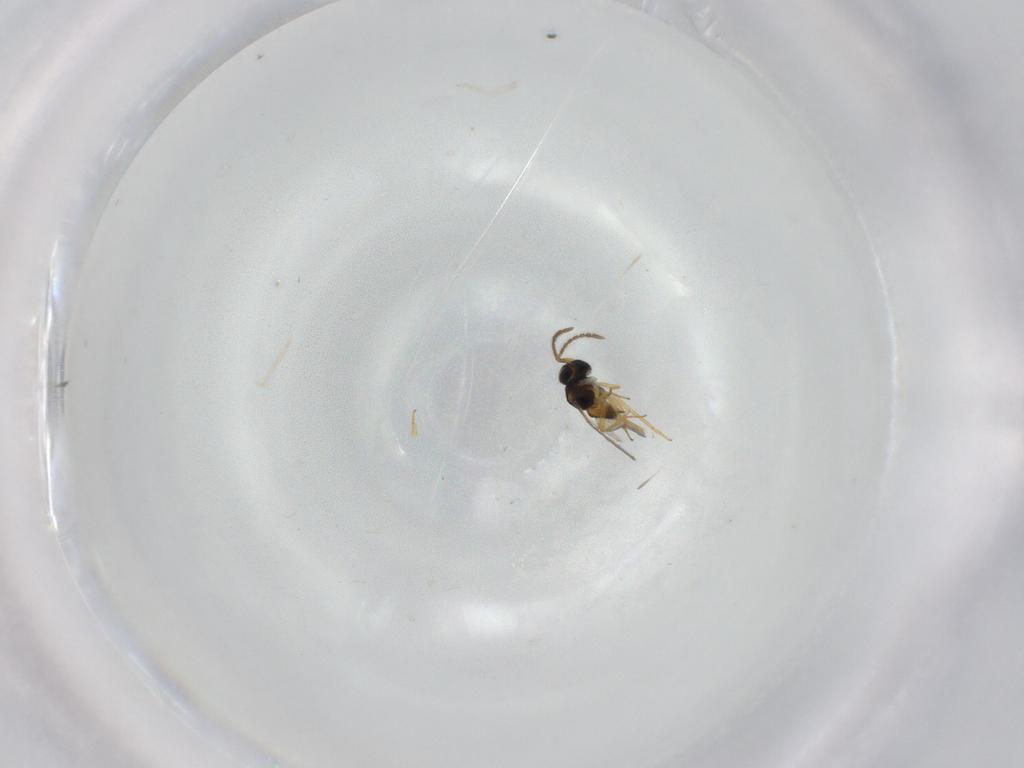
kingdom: Animalia
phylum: Arthropoda
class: Insecta
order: Hymenoptera
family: Encyrtidae
